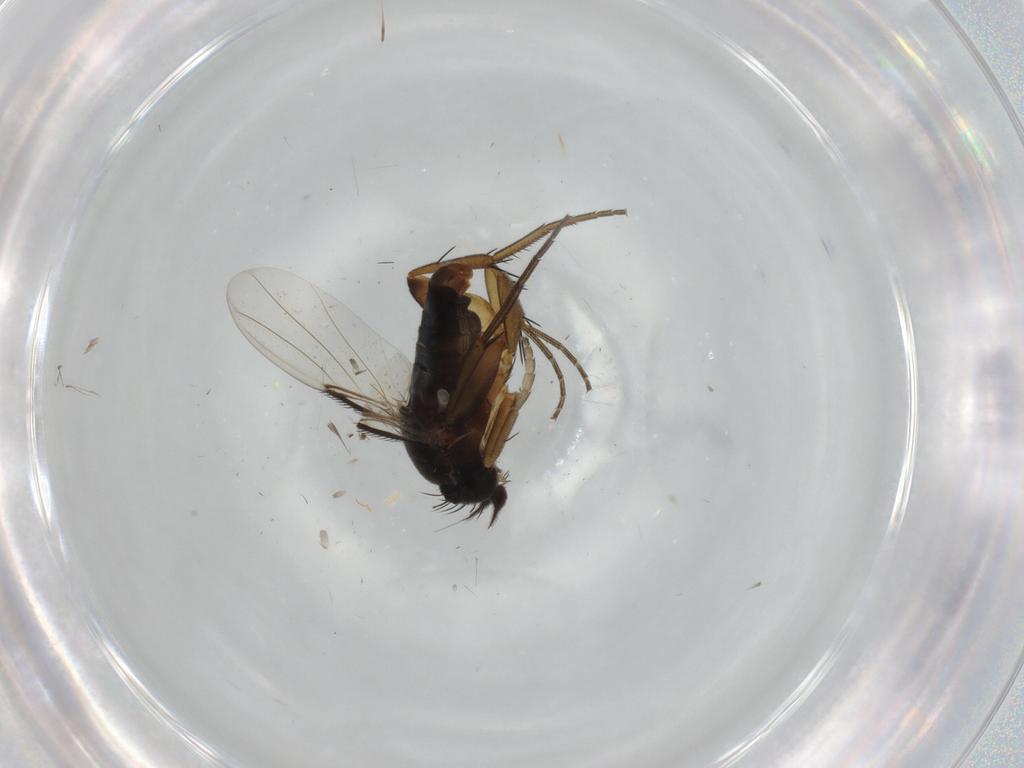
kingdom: Animalia
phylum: Arthropoda
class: Insecta
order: Diptera
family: Phoridae
